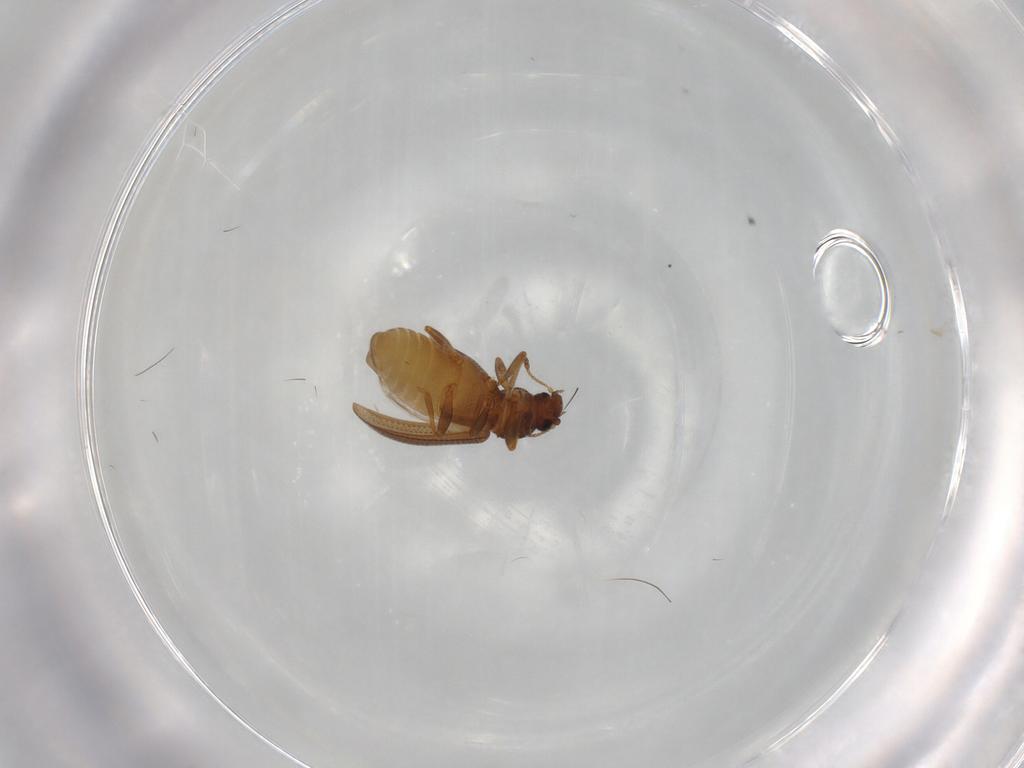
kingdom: Animalia
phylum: Arthropoda
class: Insecta
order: Coleoptera
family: Latridiidae
